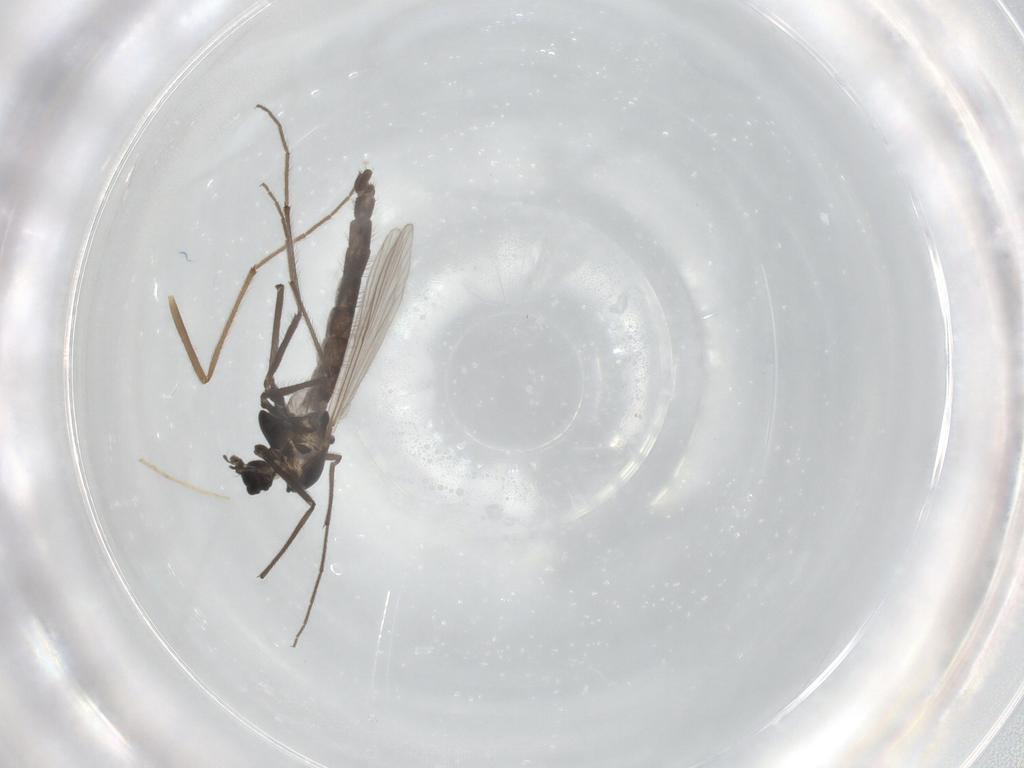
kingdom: Animalia
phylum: Arthropoda
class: Insecta
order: Diptera
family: Chironomidae
